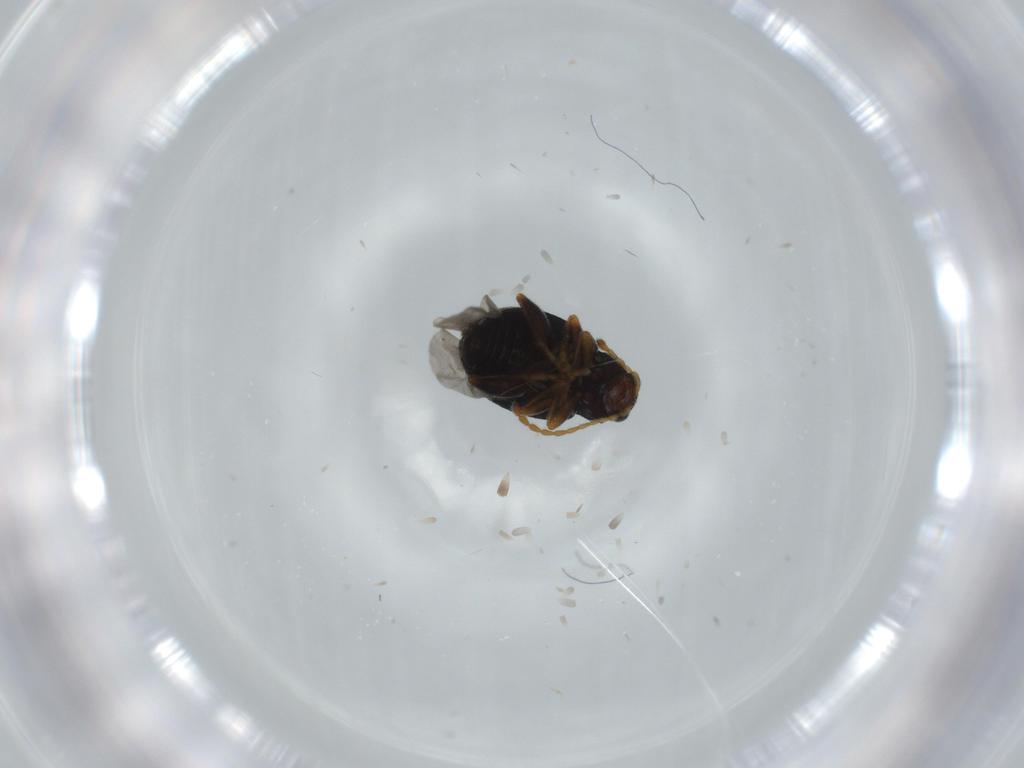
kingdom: Animalia
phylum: Arthropoda
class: Insecta
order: Coleoptera
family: Chrysomelidae
